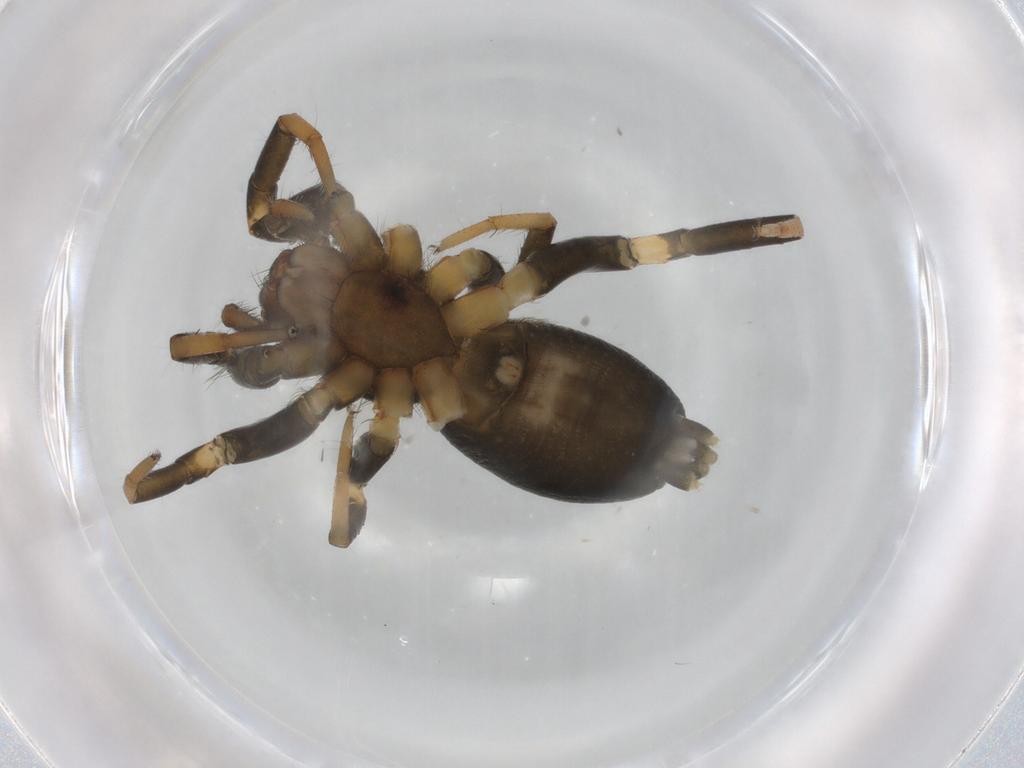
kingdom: Animalia
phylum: Arthropoda
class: Arachnida
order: Araneae
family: Gnaphosidae
